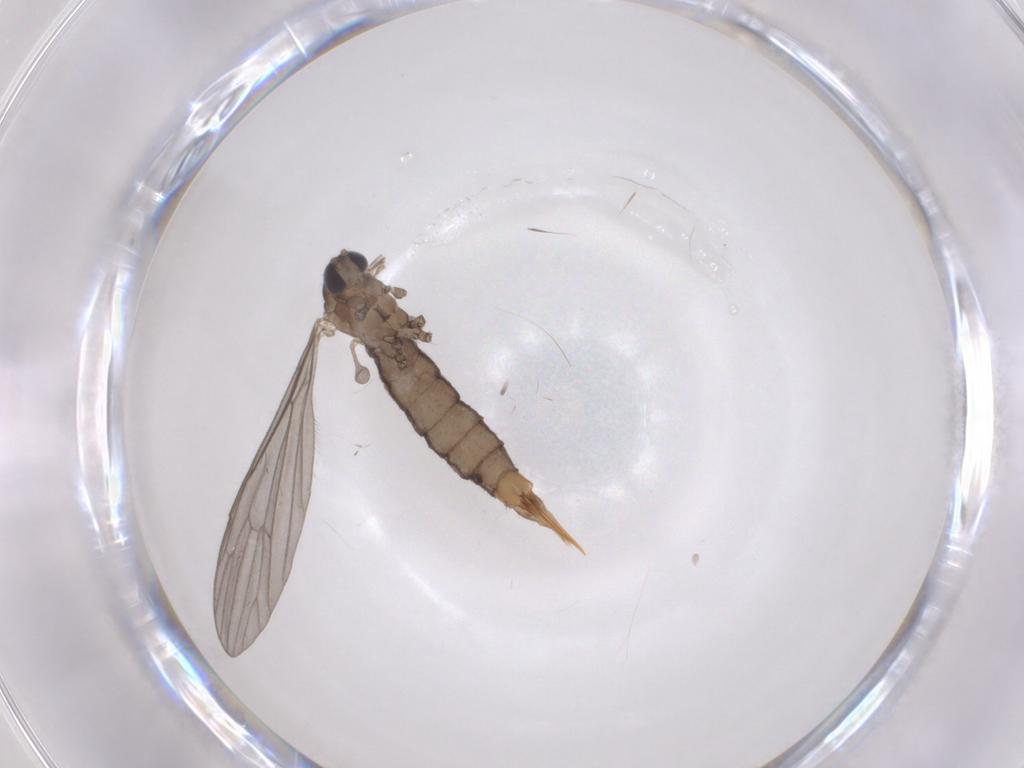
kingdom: Animalia
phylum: Arthropoda
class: Insecta
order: Diptera
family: Limoniidae
